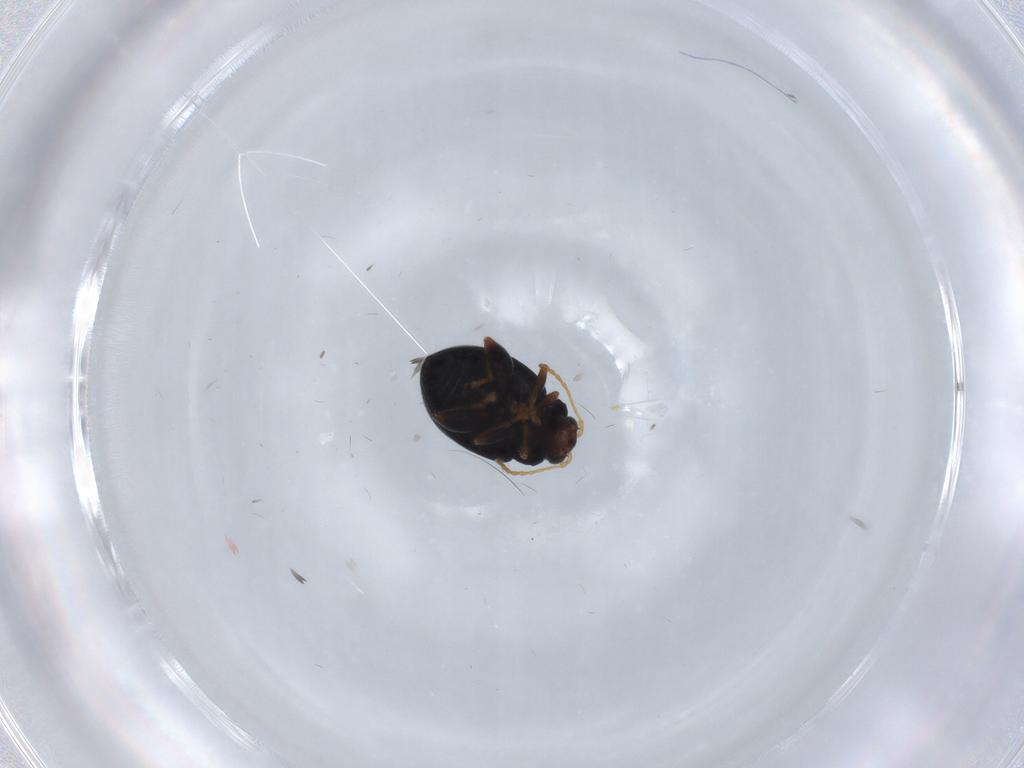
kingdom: Animalia
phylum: Arthropoda
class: Insecta
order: Coleoptera
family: Chrysomelidae
